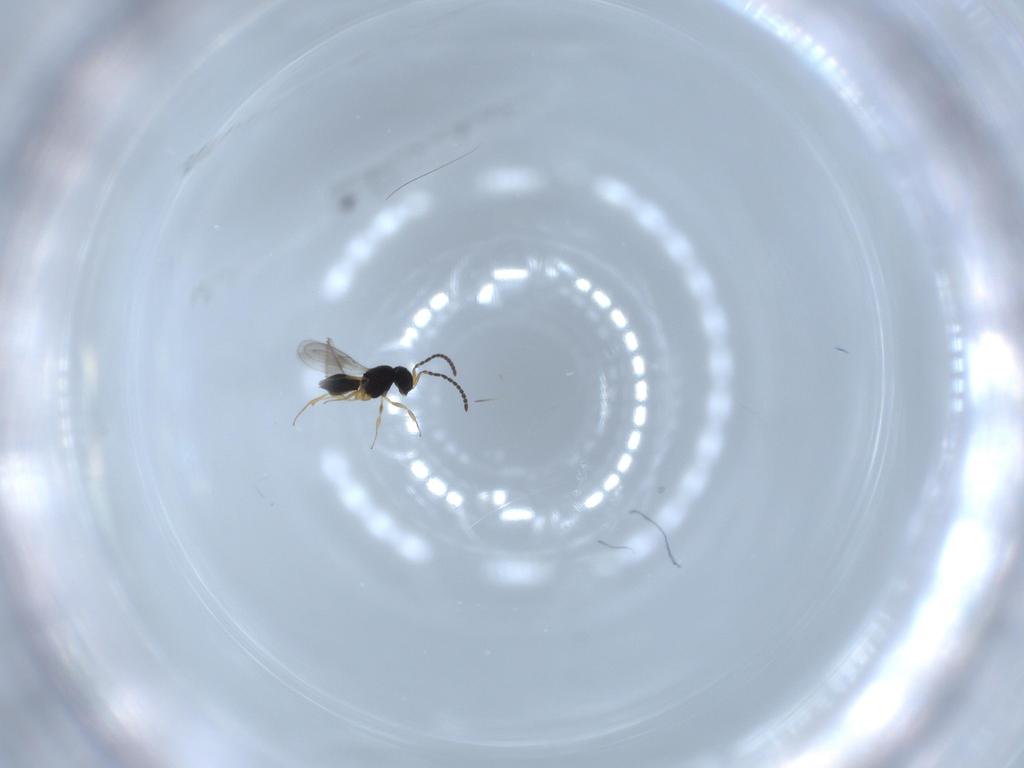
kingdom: Animalia
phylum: Arthropoda
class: Insecta
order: Hymenoptera
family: Scelionidae
